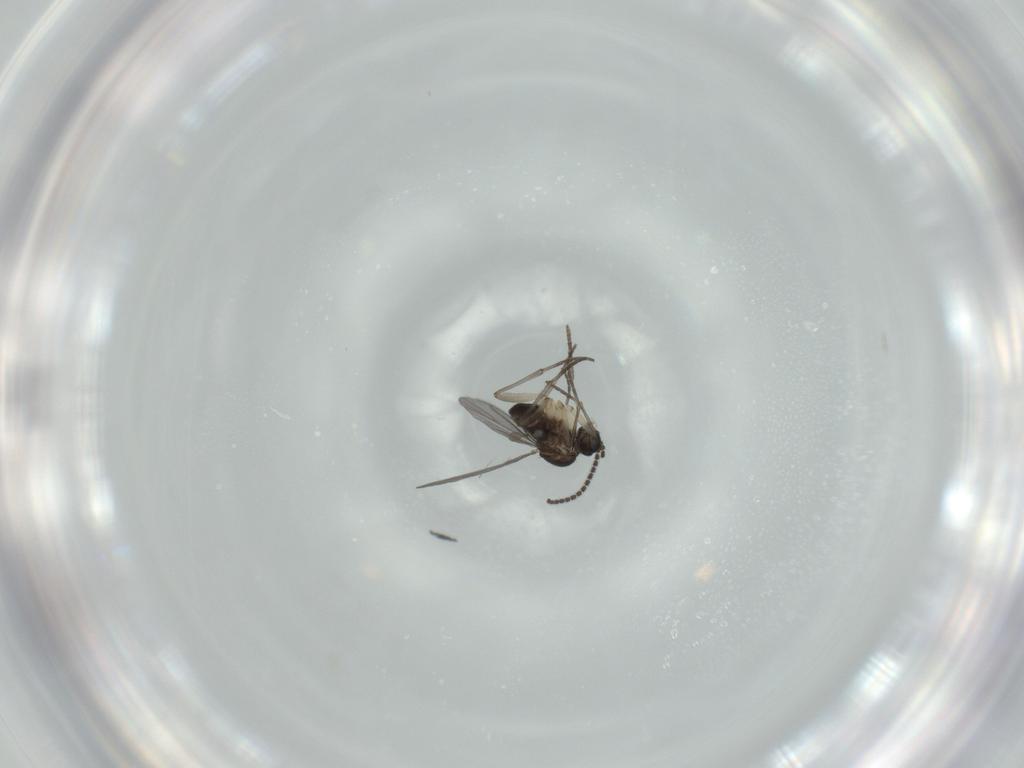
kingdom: Animalia
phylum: Arthropoda
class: Insecta
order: Diptera
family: Sciaridae
